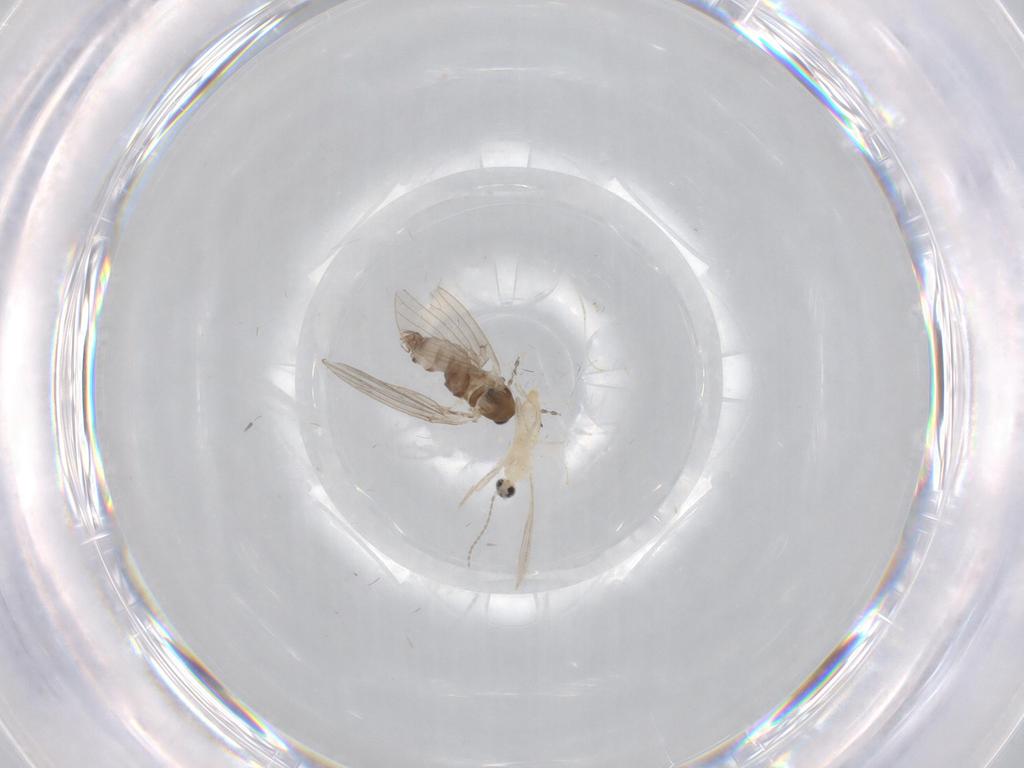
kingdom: Animalia
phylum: Arthropoda
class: Insecta
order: Diptera
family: Cecidomyiidae
